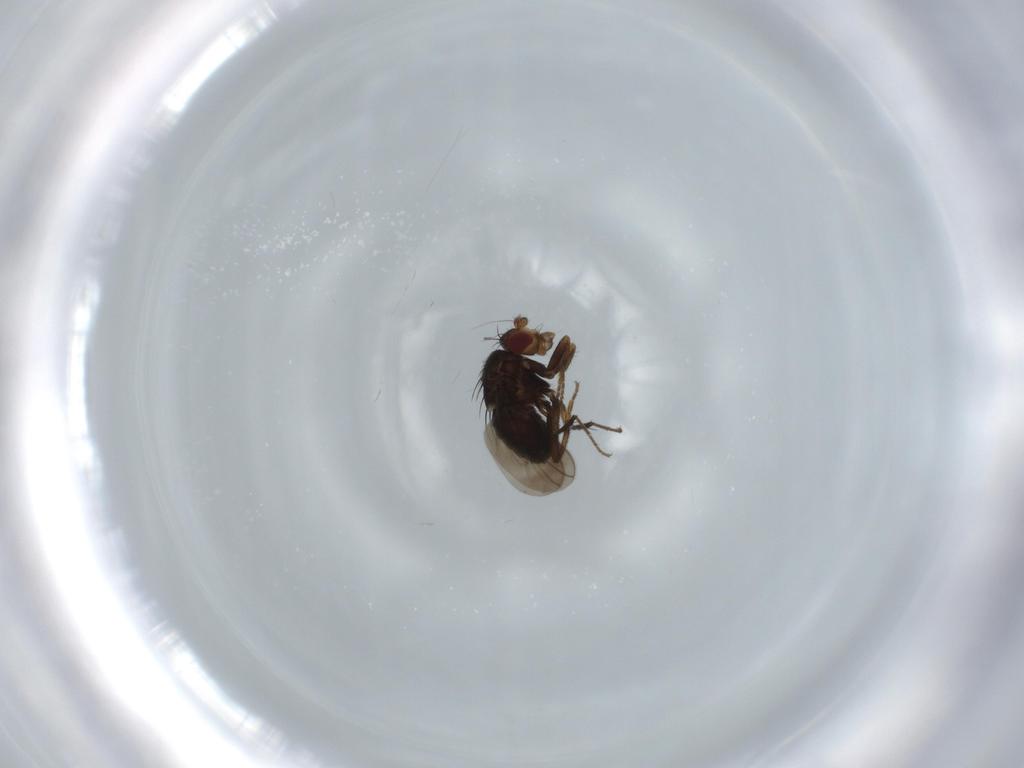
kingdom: Animalia
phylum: Arthropoda
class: Insecta
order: Diptera
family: Sphaeroceridae
